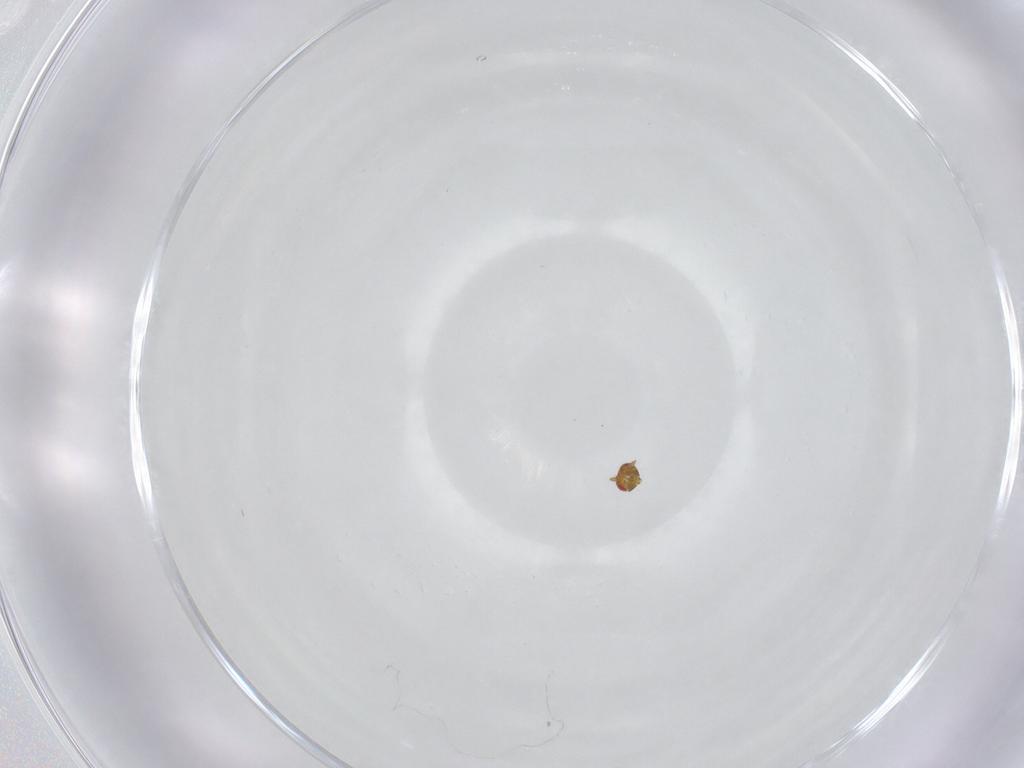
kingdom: Animalia
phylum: Arthropoda
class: Insecta
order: Hymenoptera
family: Trichogrammatidae
